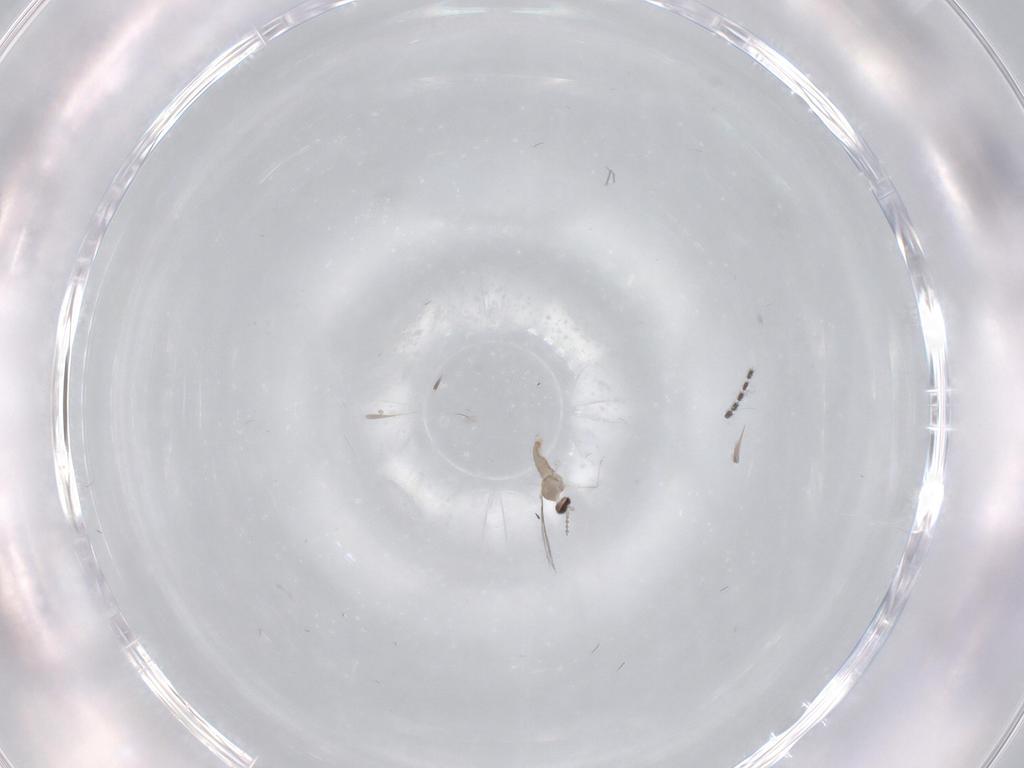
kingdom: Animalia
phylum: Arthropoda
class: Insecta
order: Diptera
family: Cecidomyiidae
